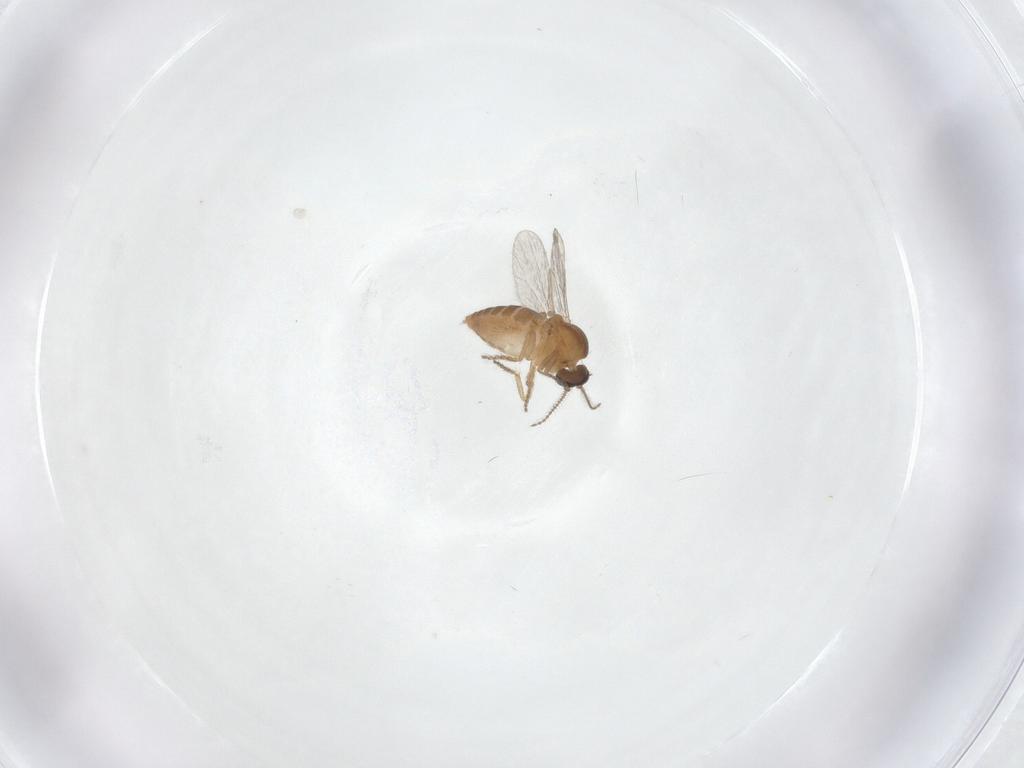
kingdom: Animalia
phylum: Arthropoda
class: Insecta
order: Diptera
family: Ceratopogonidae
